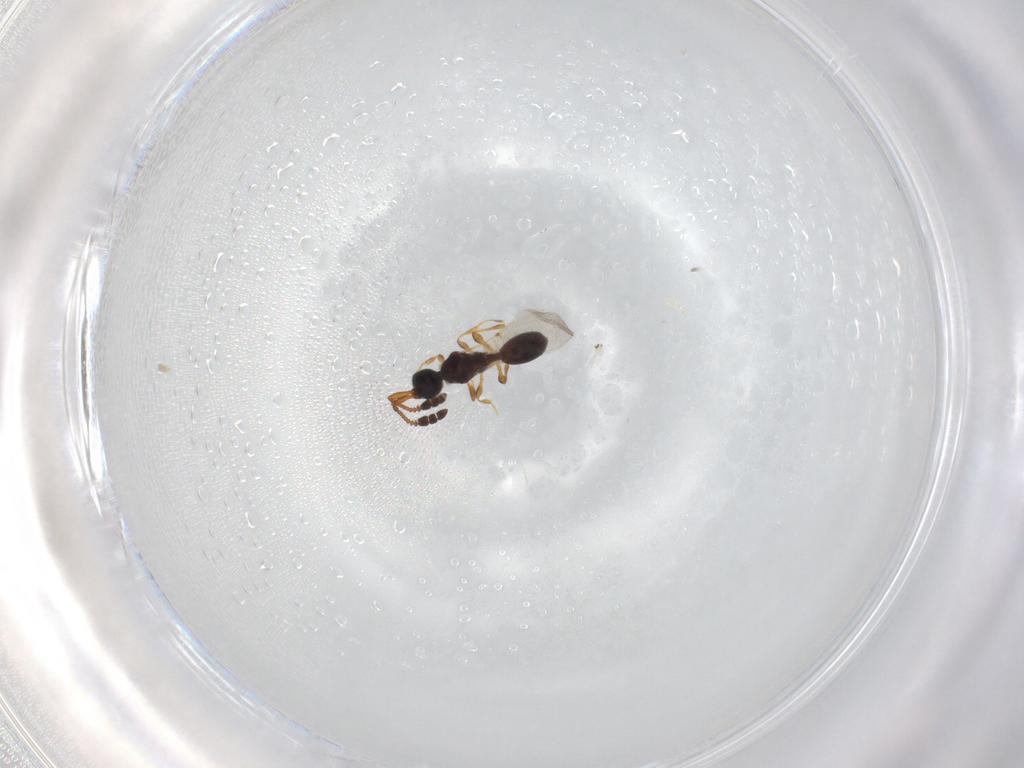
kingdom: Animalia
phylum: Arthropoda
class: Insecta
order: Hymenoptera
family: Diapriidae
